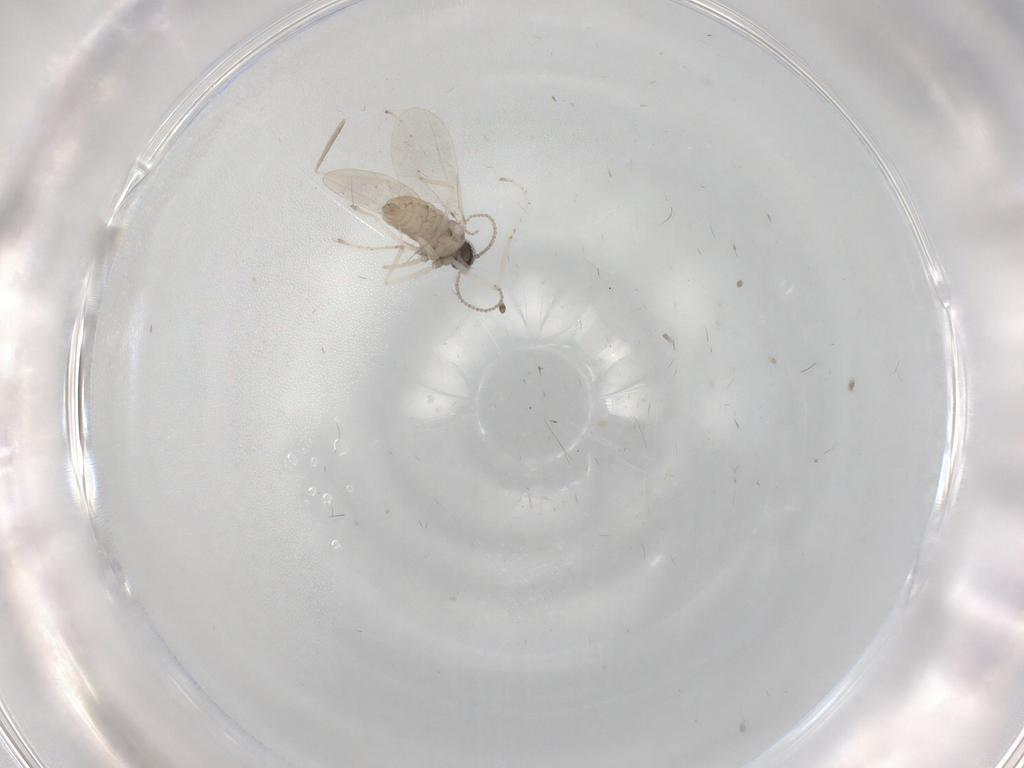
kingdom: Animalia
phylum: Arthropoda
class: Insecta
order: Diptera
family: Cecidomyiidae
